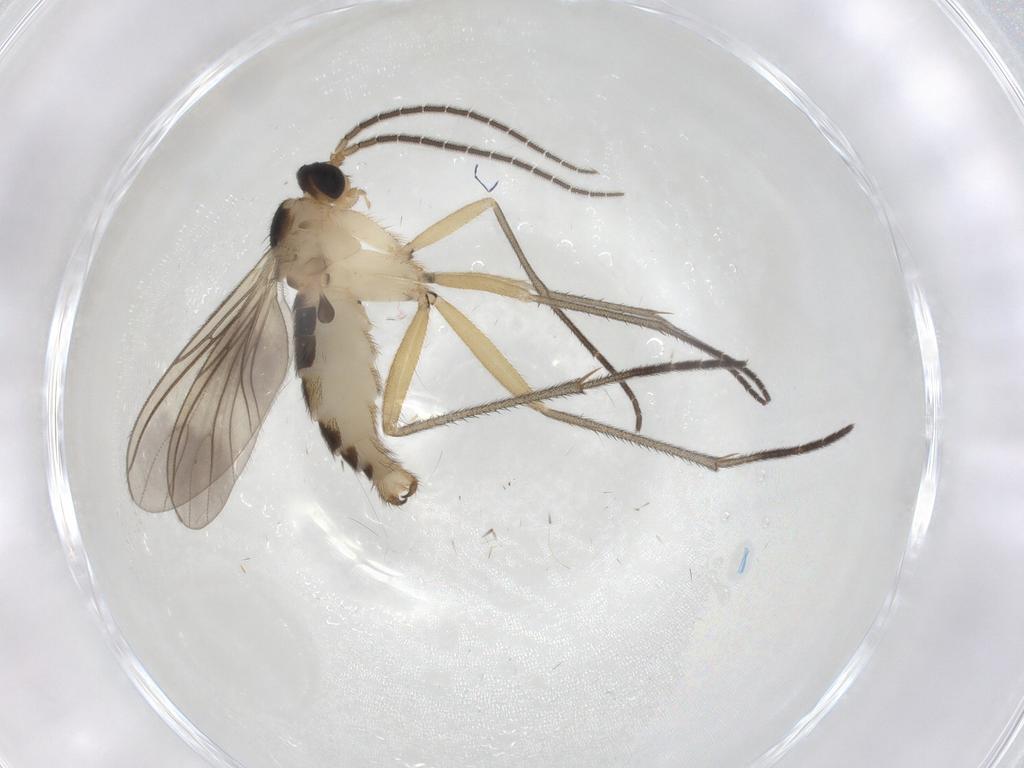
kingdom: Animalia
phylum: Arthropoda
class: Insecta
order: Diptera
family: Sciaridae
